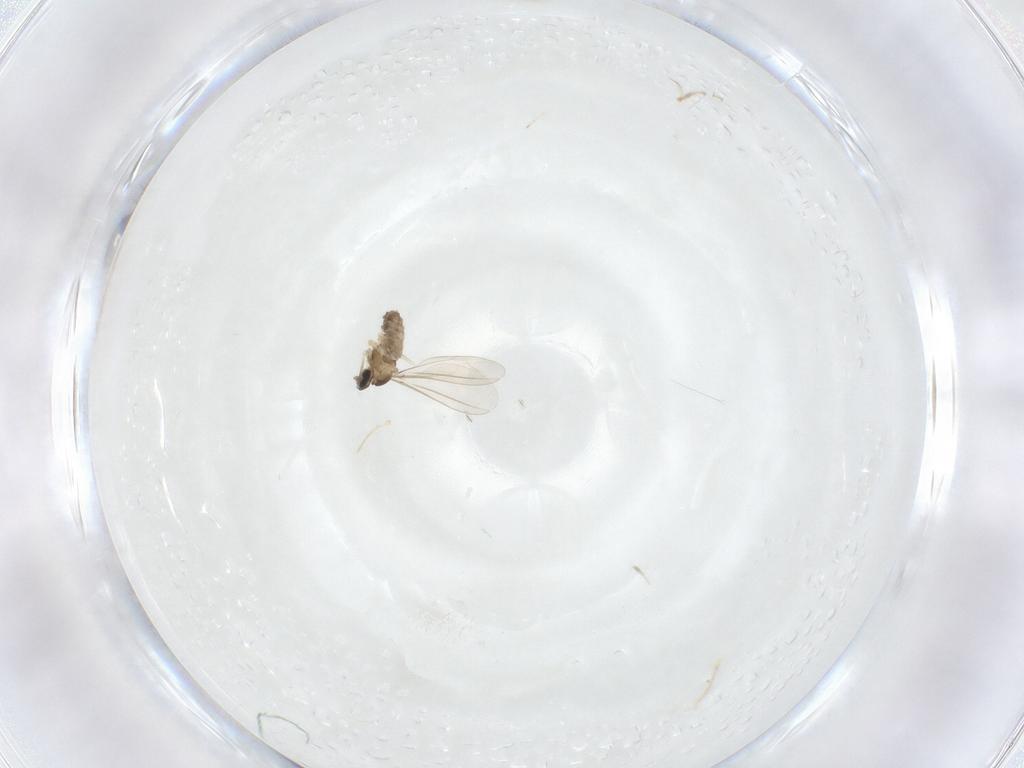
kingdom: Animalia
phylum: Arthropoda
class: Insecta
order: Diptera
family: Cecidomyiidae
